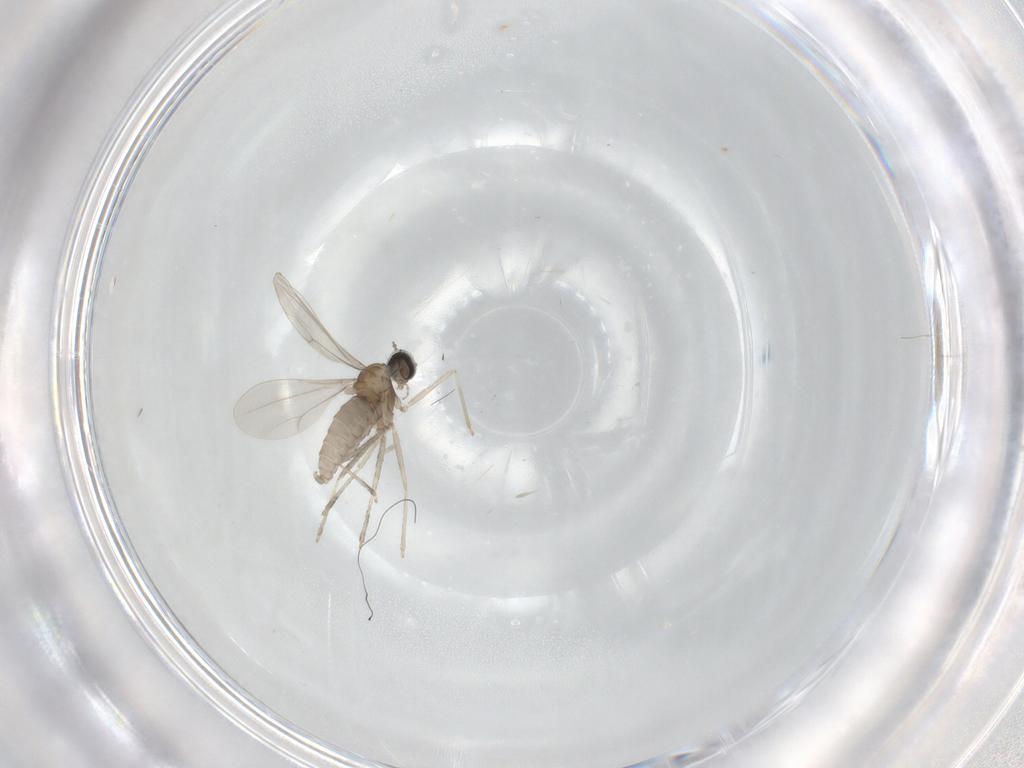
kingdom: Animalia
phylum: Arthropoda
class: Insecta
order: Diptera
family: Cecidomyiidae
